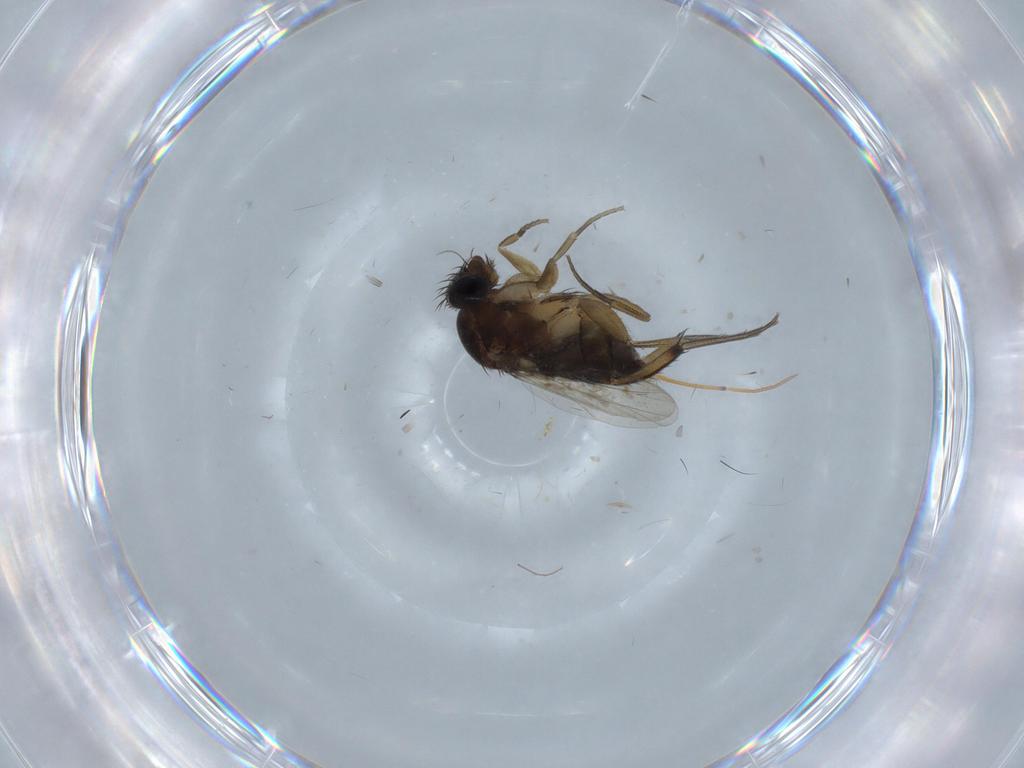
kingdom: Animalia
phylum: Arthropoda
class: Insecta
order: Diptera
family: Phoridae
